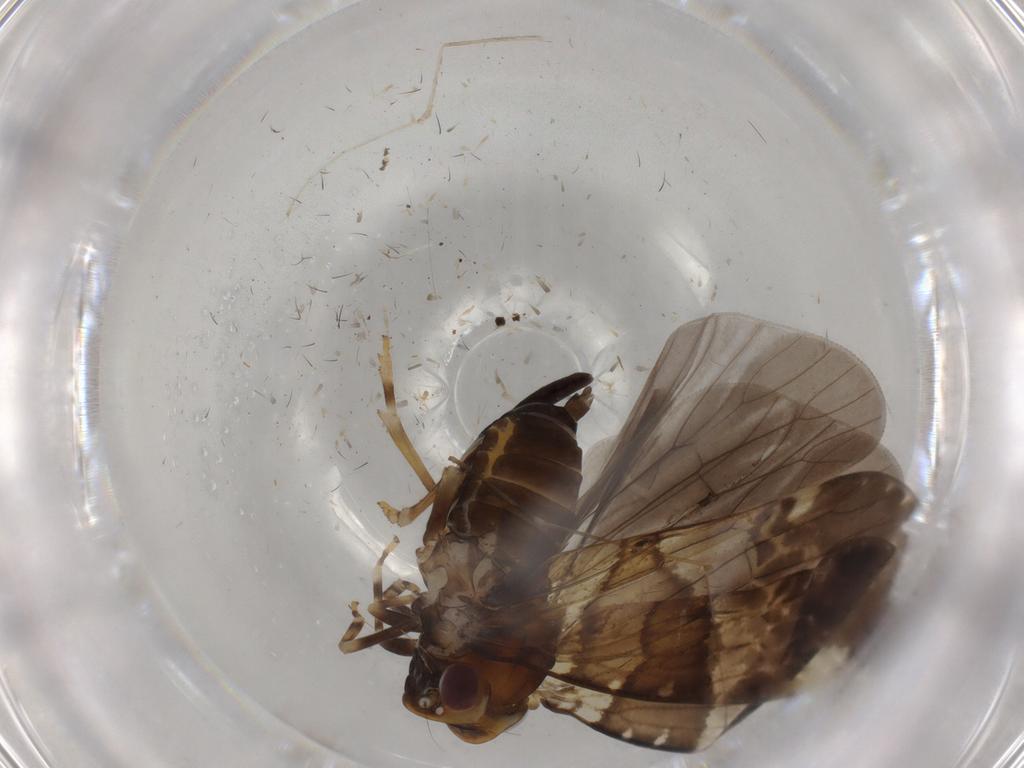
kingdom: Animalia
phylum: Arthropoda
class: Insecta
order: Hemiptera
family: Cixiidae
